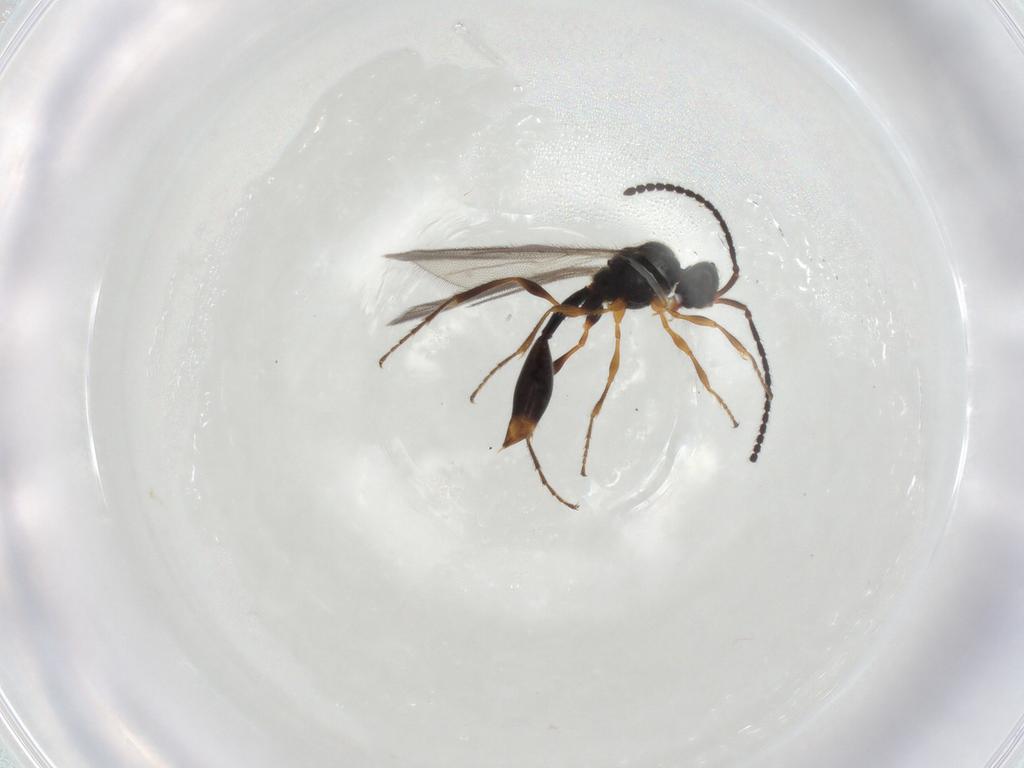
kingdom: Animalia
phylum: Arthropoda
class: Insecta
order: Hymenoptera
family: Diapriidae
